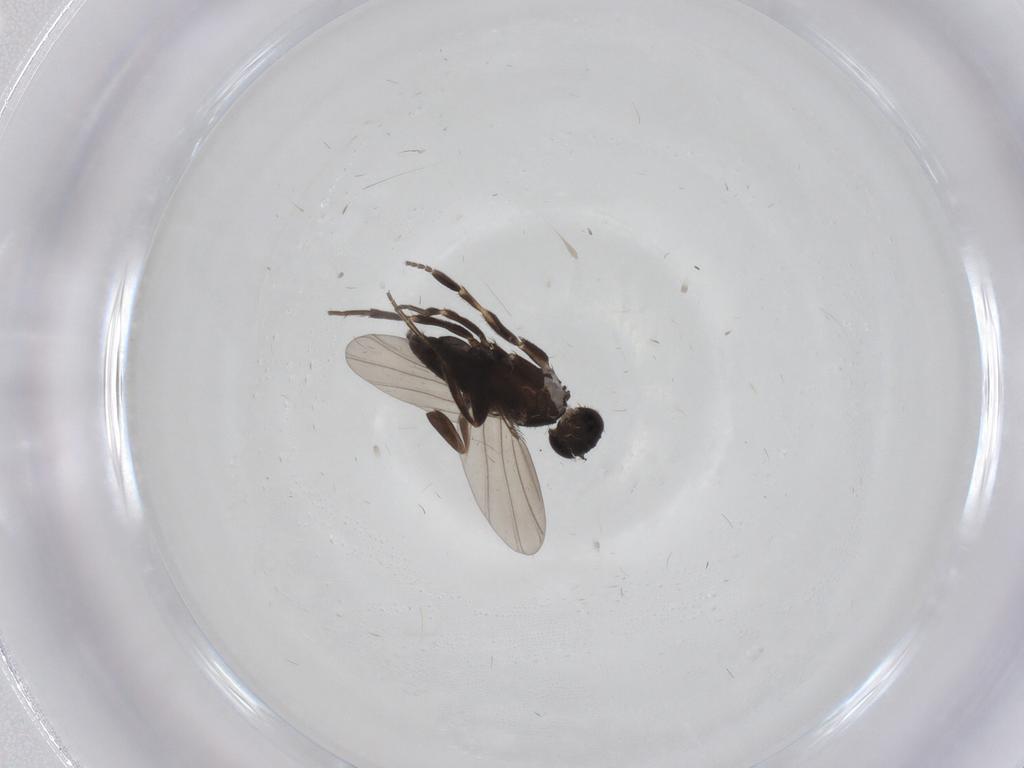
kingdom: Animalia
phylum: Arthropoda
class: Insecta
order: Diptera
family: Phoridae
